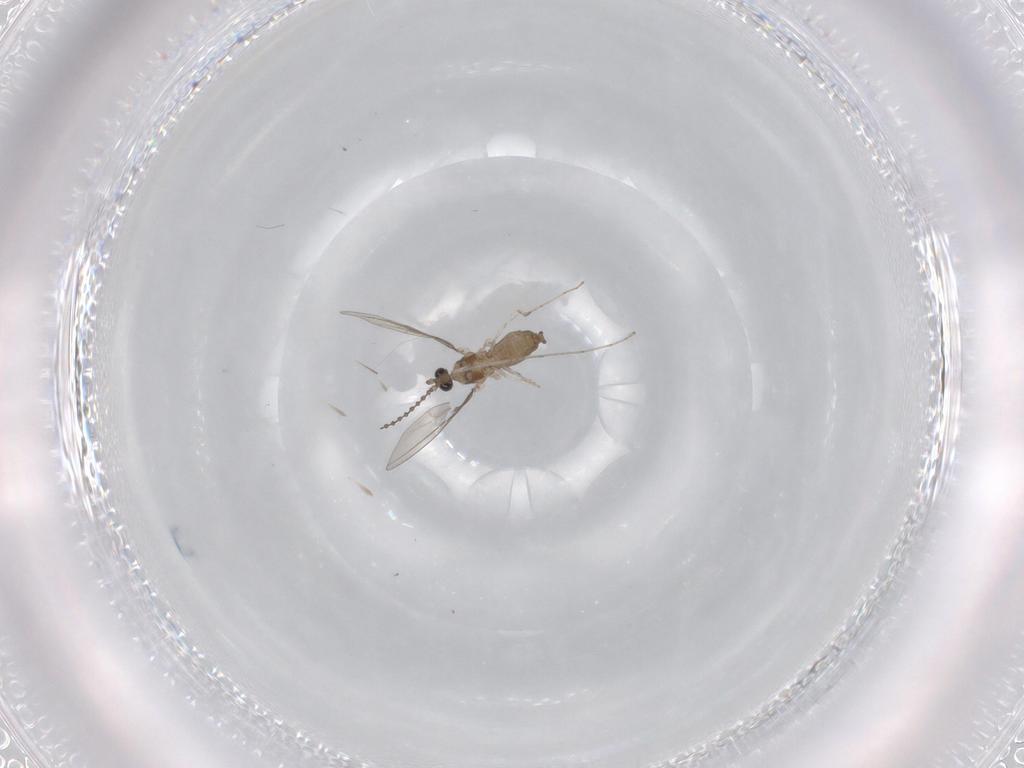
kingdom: Animalia
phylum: Arthropoda
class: Insecta
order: Diptera
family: Cecidomyiidae
